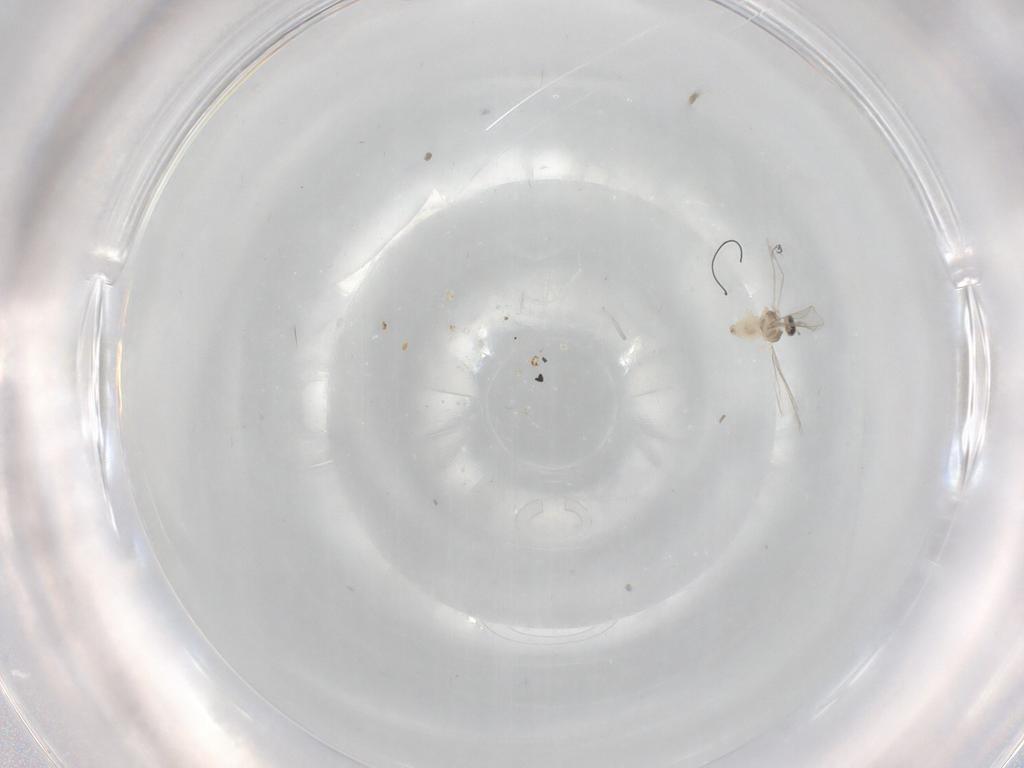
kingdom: Animalia
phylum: Arthropoda
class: Insecta
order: Diptera
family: Cecidomyiidae
